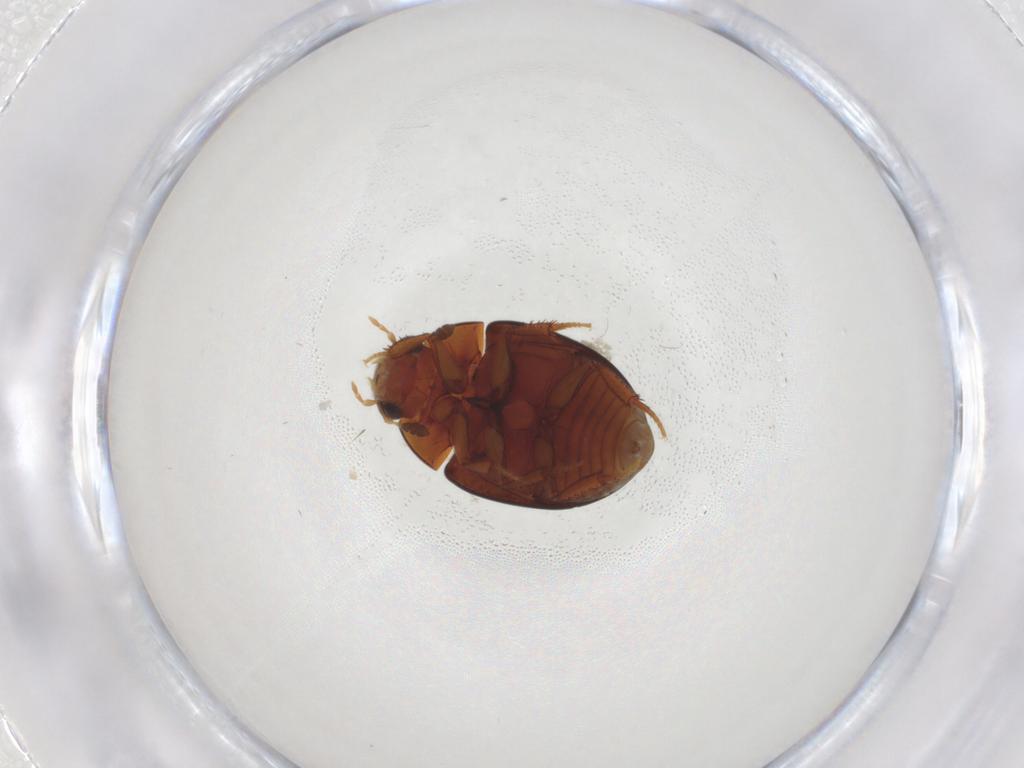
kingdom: Animalia
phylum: Arthropoda
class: Insecta
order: Coleoptera
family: Hydrophilidae
